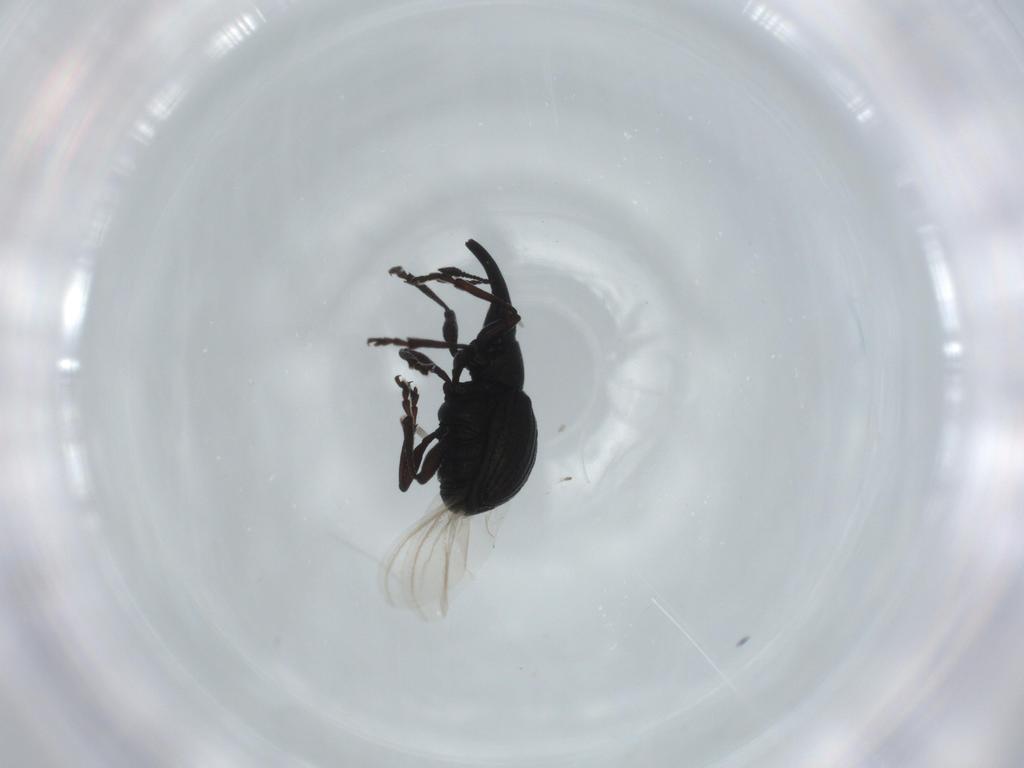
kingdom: Animalia
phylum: Arthropoda
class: Insecta
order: Coleoptera
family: Brentidae
